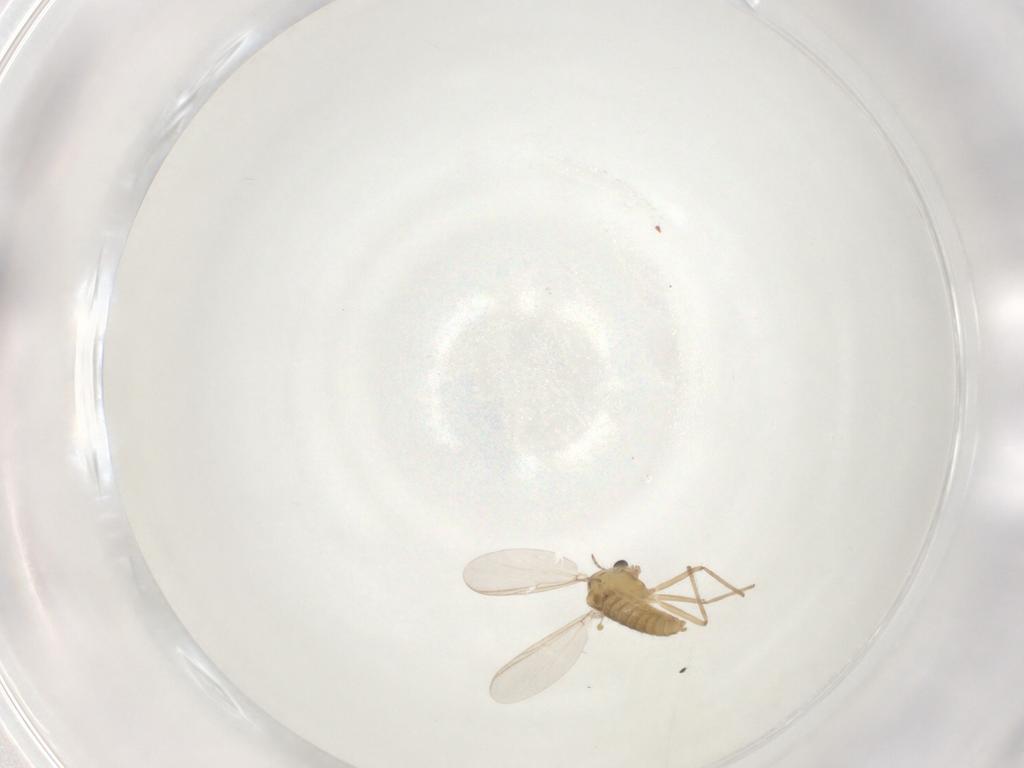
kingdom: Animalia
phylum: Arthropoda
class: Insecta
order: Diptera
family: Chironomidae
